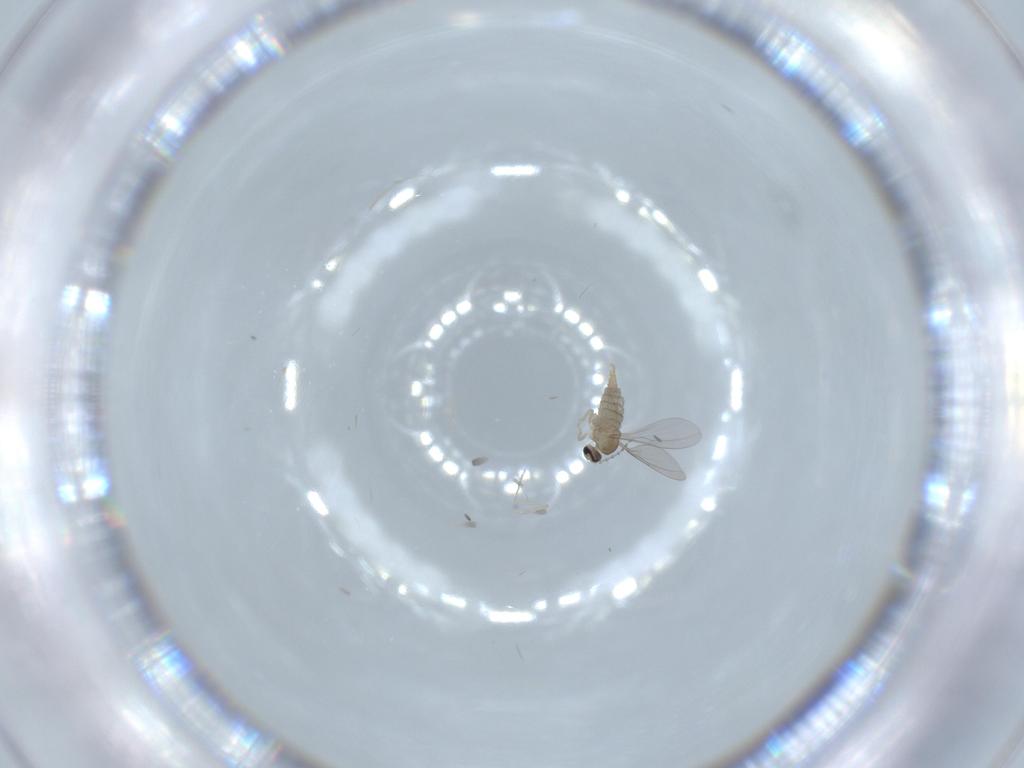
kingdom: Animalia
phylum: Arthropoda
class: Insecta
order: Diptera
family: Cecidomyiidae
